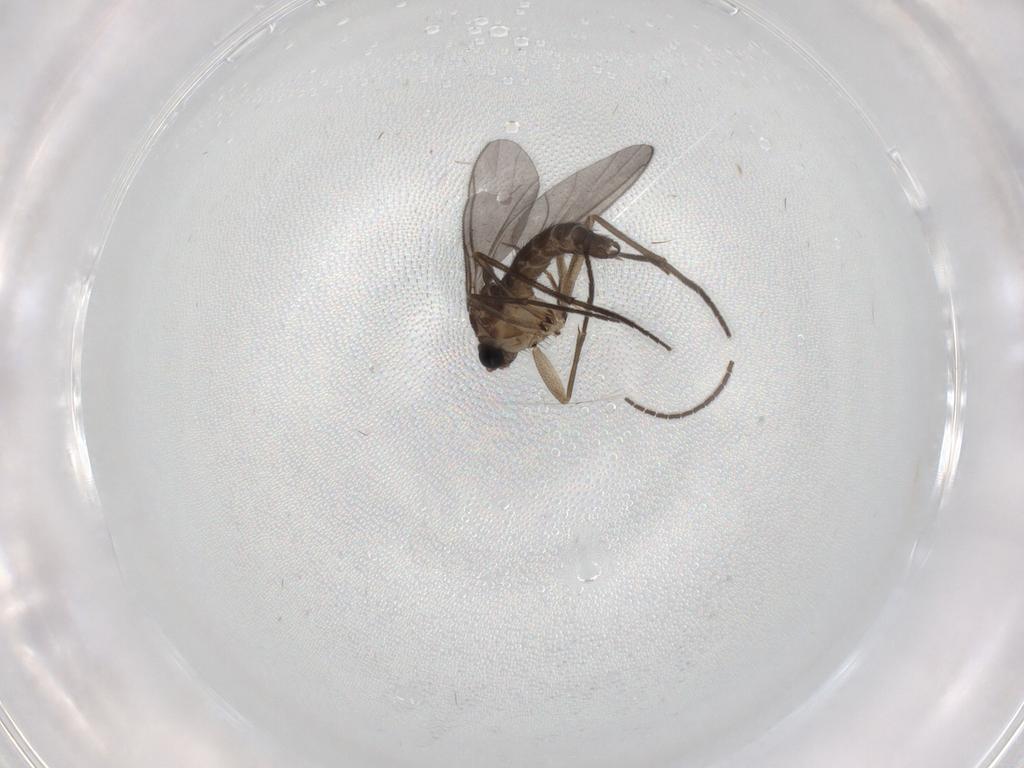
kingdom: Animalia
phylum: Arthropoda
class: Insecta
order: Diptera
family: Sciaridae
